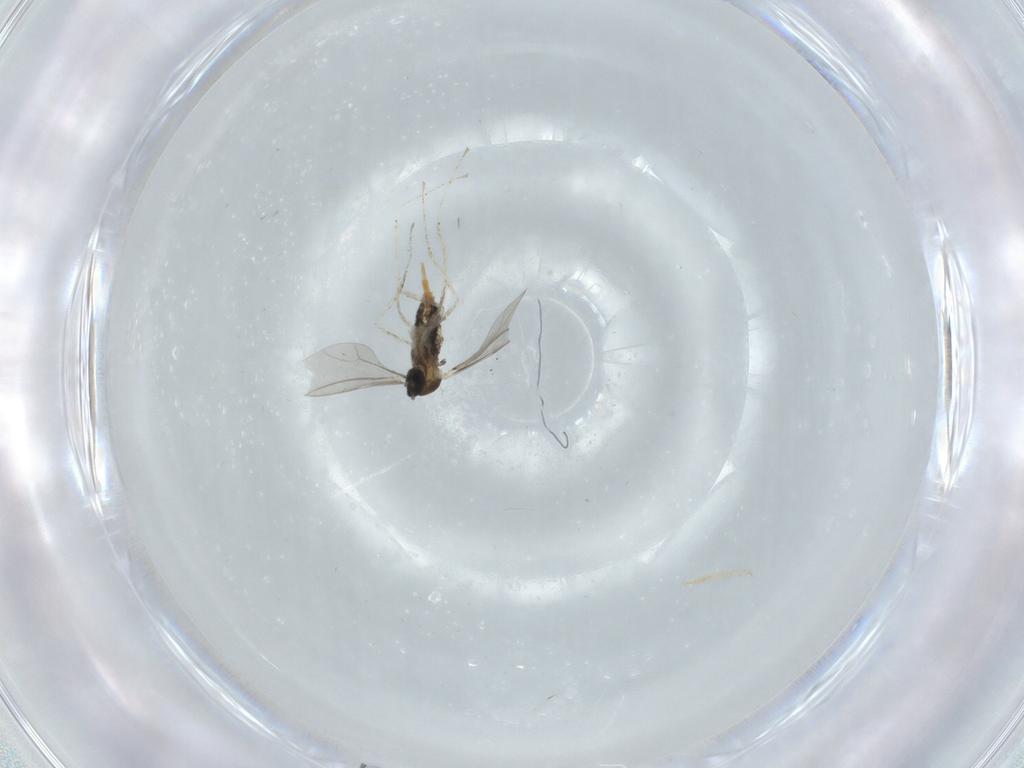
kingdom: Animalia
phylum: Arthropoda
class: Insecta
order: Diptera
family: Cecidomyiidae
